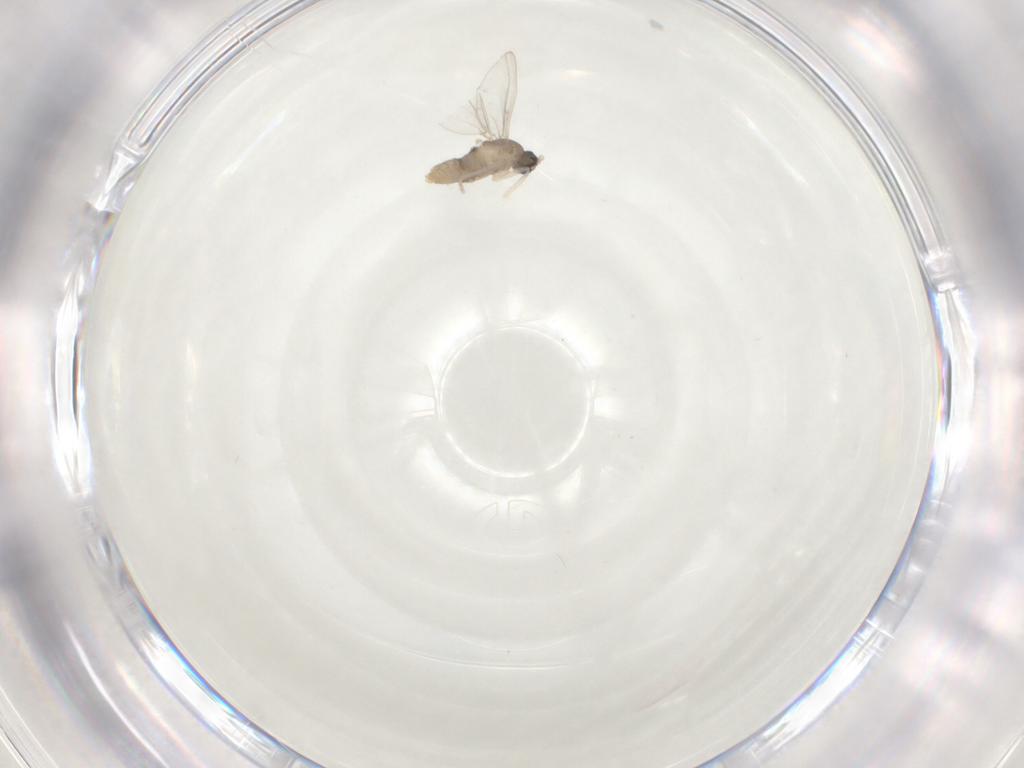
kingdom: Animalia
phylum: Arthropoda
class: Insecta
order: Diptera
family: Cecidomyiidae
